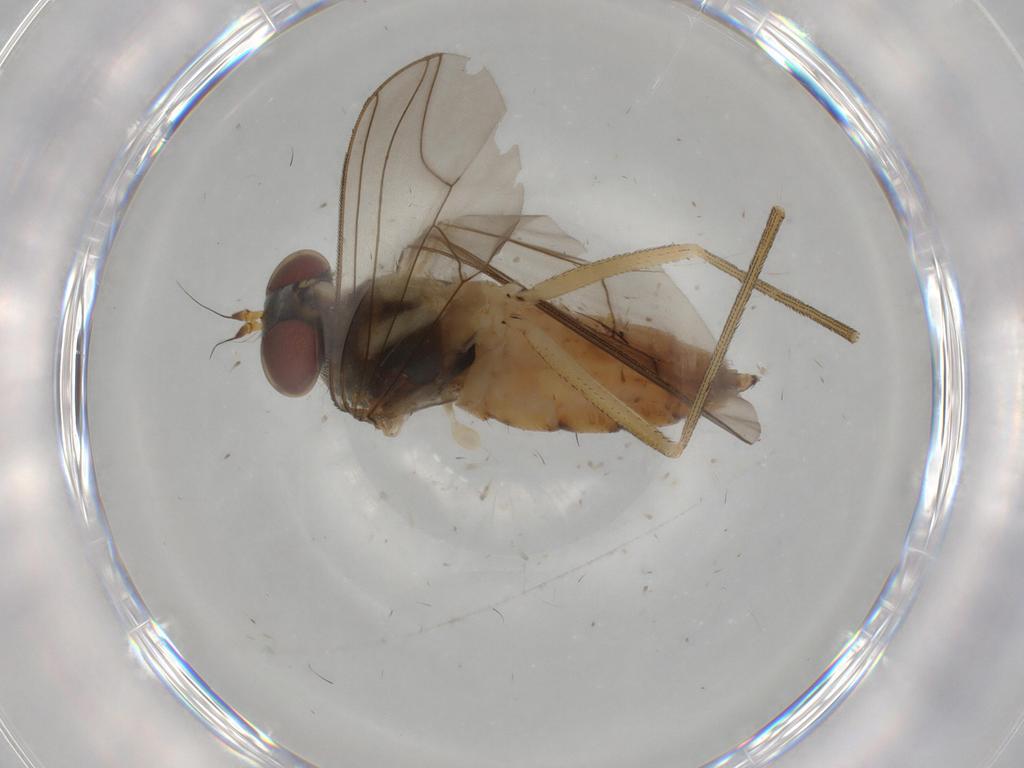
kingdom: Animalia
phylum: Arthropoda
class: Insecta
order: Diptera
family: Dolichopodidae
